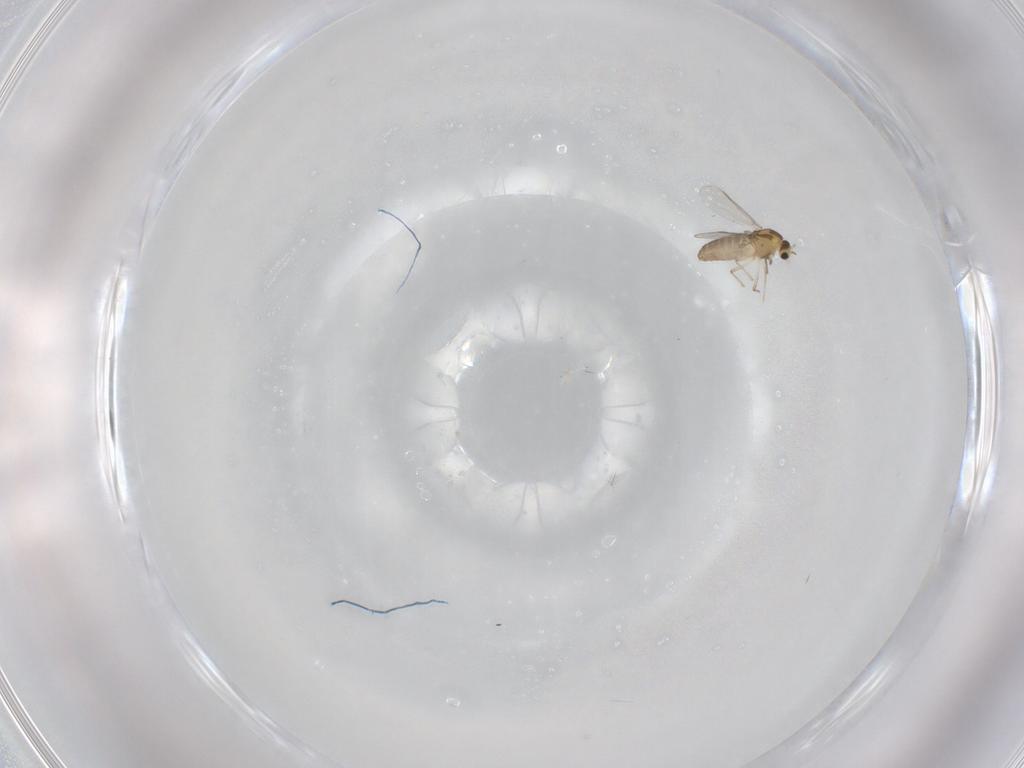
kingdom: Animalia
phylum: Arthropoda
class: Insecta
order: Diptera
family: Chironomidae
